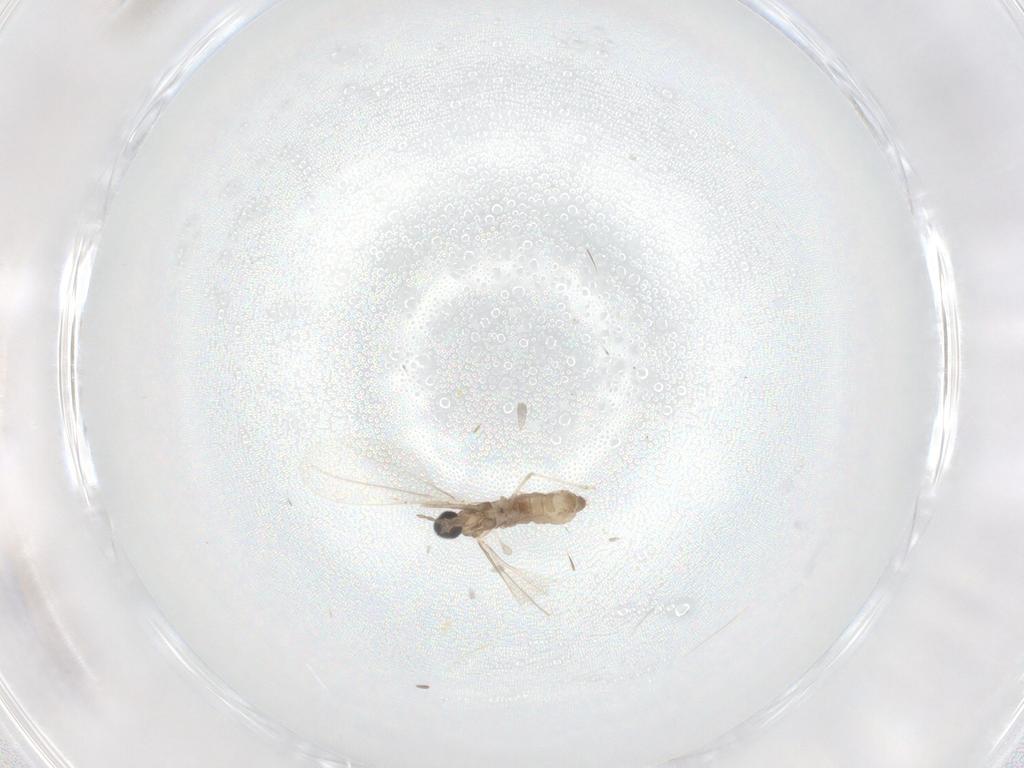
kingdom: Animalia
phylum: Arthropoda
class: Insecta
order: Diptera
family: Cecidomyiidae
